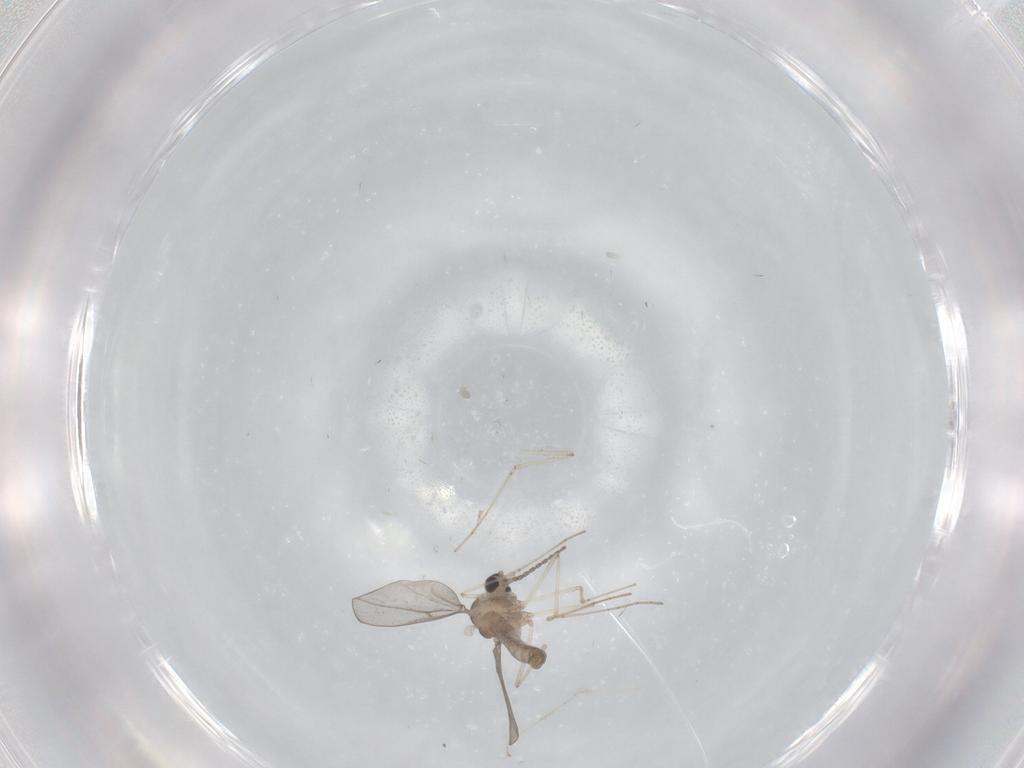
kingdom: Animalia
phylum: Arthropoda
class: Insecta
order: Diptera
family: Cecidomyiidae
